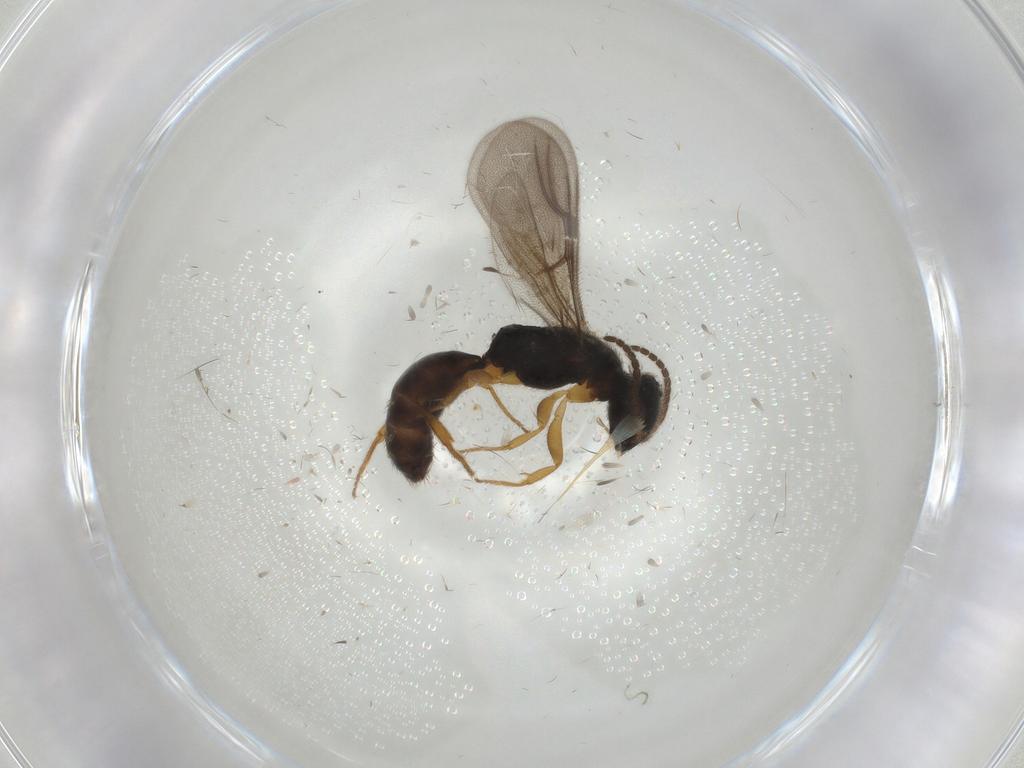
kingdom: Animalia
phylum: Arthropoda
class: Insecta
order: Hymenoptera
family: Bethylidae
